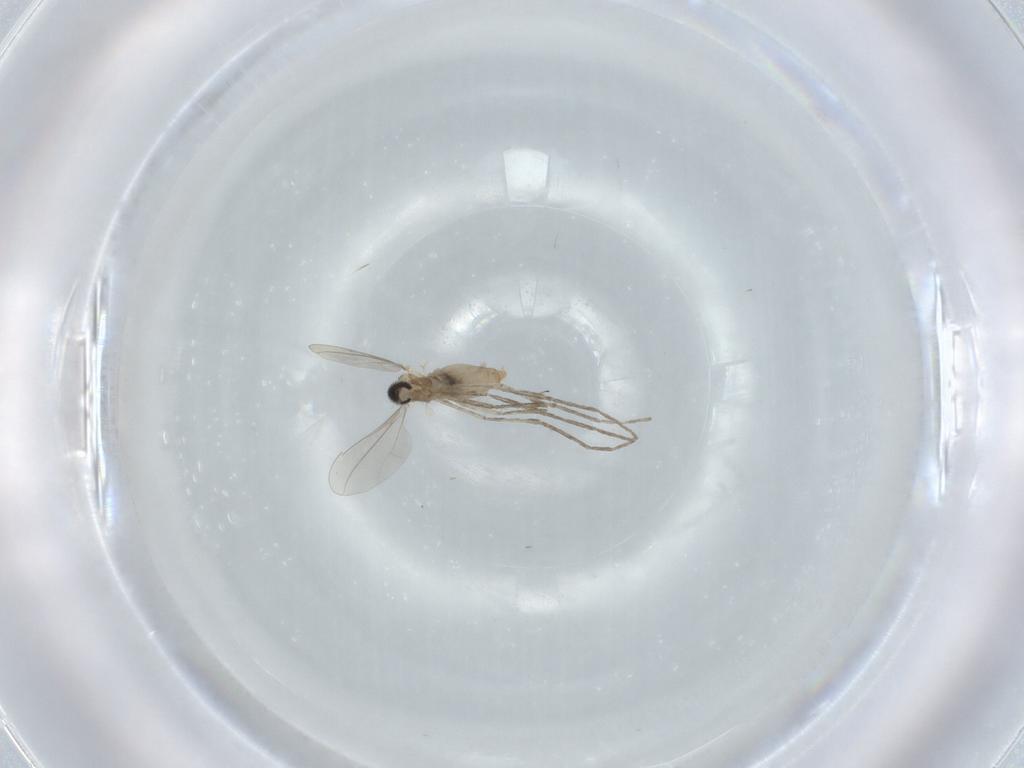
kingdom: Animalia
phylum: Arthropoda
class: Insecta
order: Diptera
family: Cecidomyiidae
